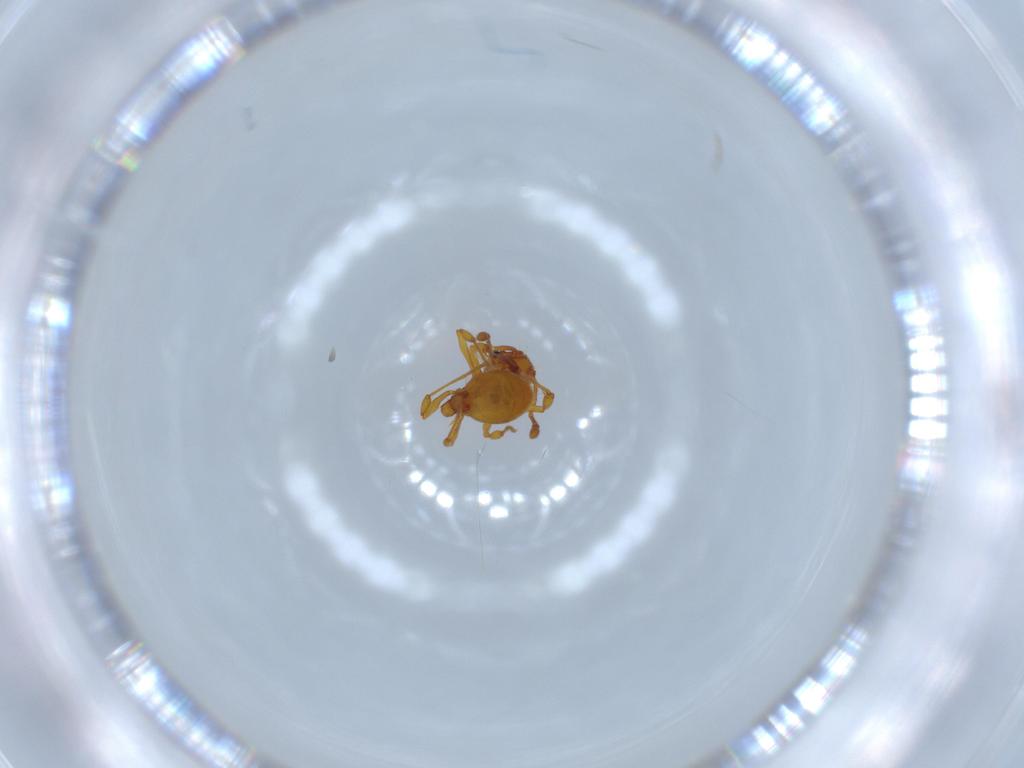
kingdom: Animalia
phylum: Arthropoda
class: Insecta
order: Hymenoptera
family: Formicidae
